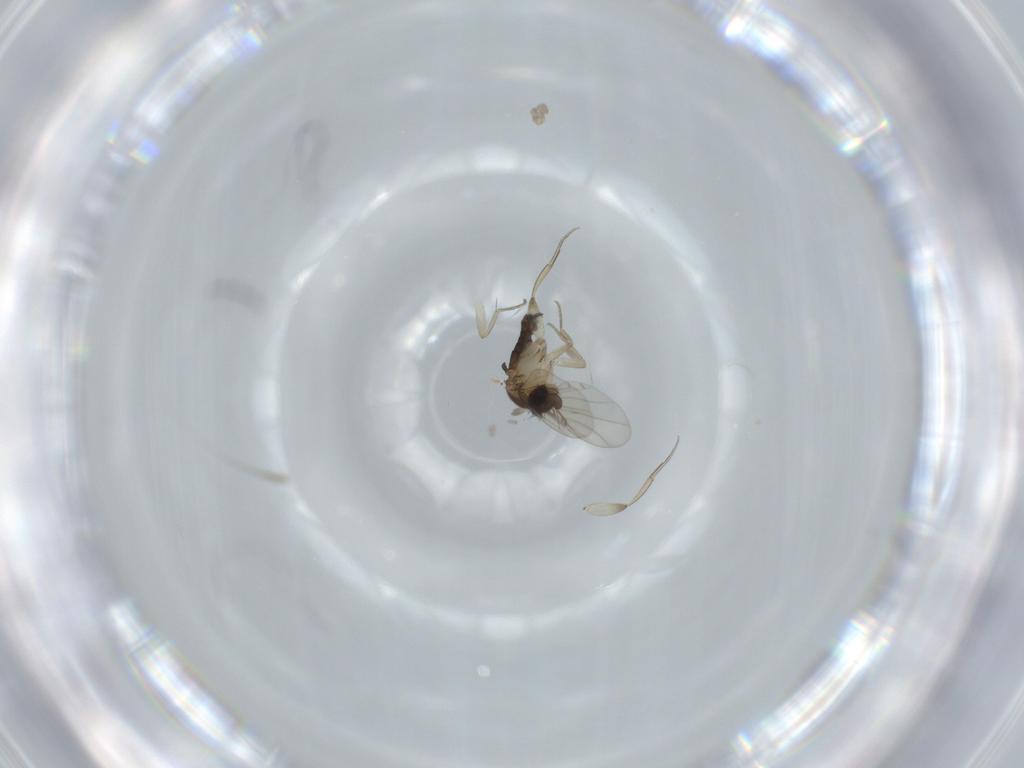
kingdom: Animalia
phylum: Arthropoda
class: Insecta
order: Diptera
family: Phoridae
